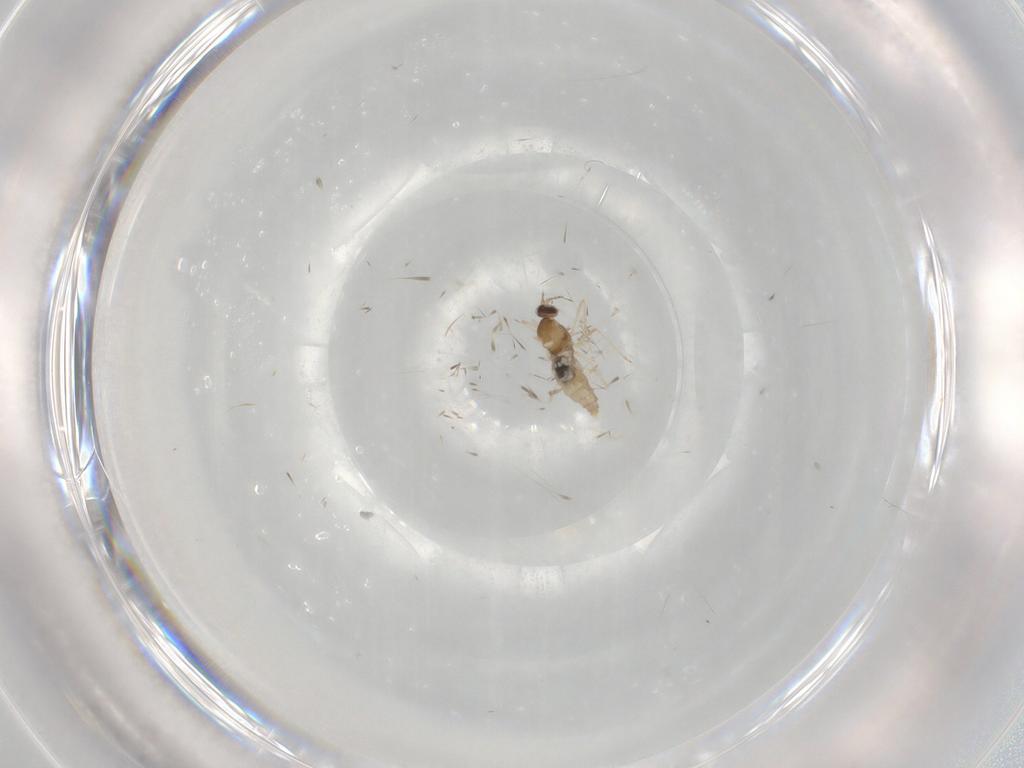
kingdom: Animalia
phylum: Arthropoda
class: Insecta
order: Diptera
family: Cecidomyiidae
